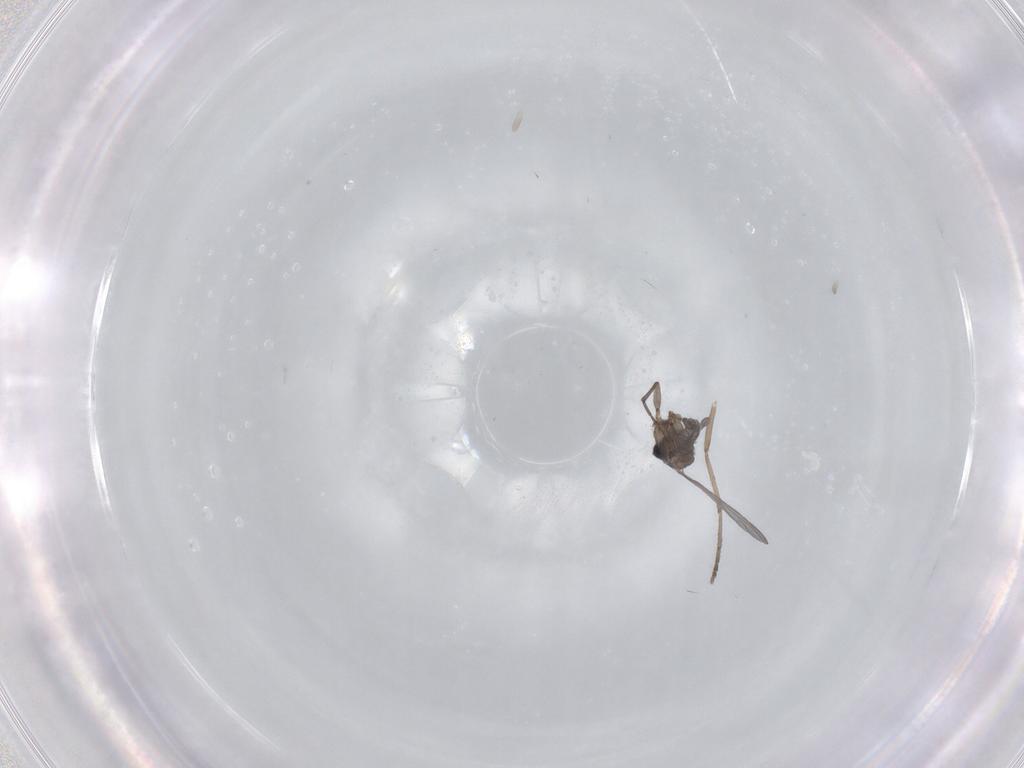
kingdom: Animalia
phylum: Arthropoda
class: Insecta
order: Diptera
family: Sciaridae
